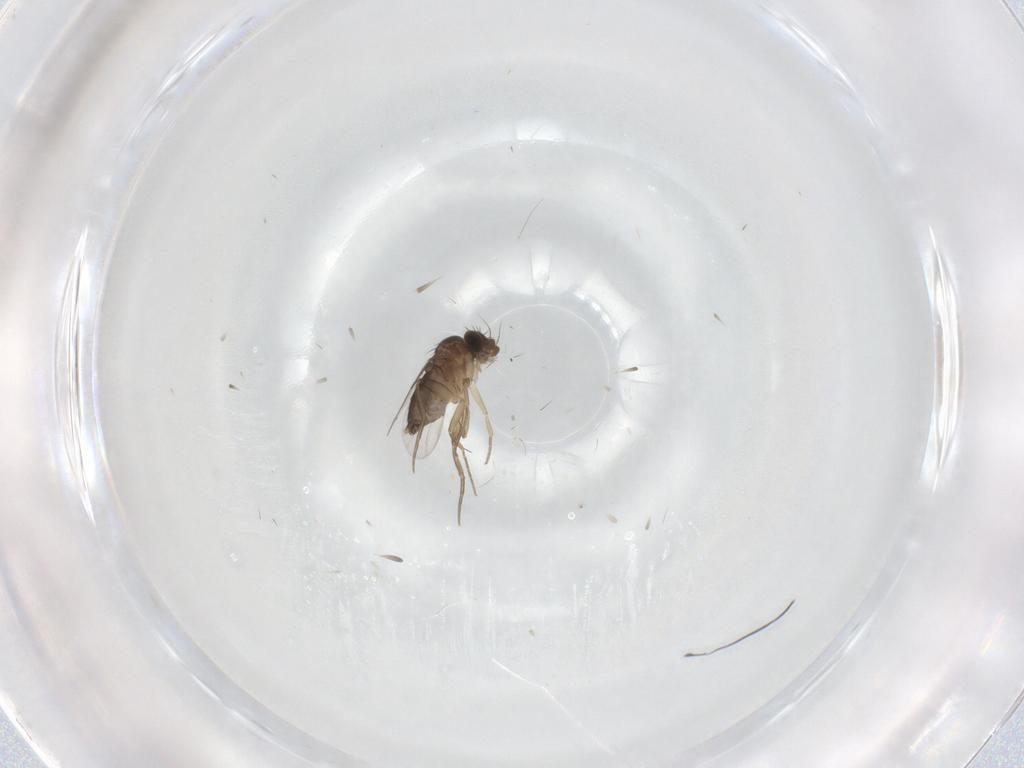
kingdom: Animalia
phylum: Arthropoda
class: Insecta
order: Diptera
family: Phoridae
